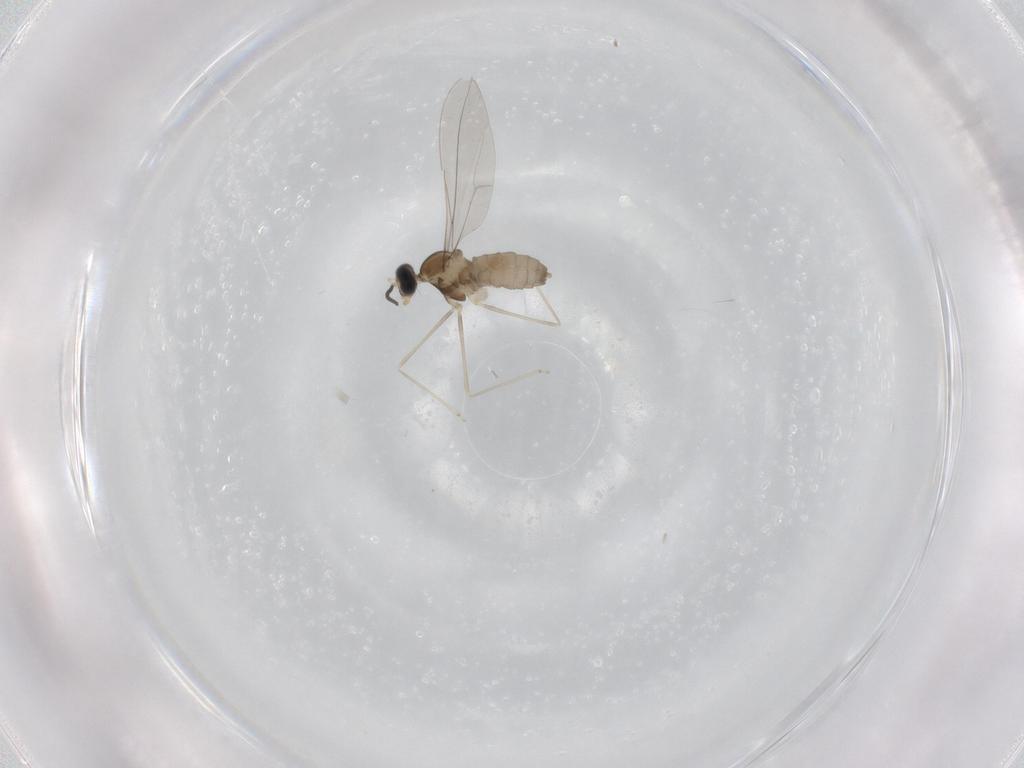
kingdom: Animalia
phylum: Arthropoda
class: Insecta
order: Diptera
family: Cecidomyiidae
